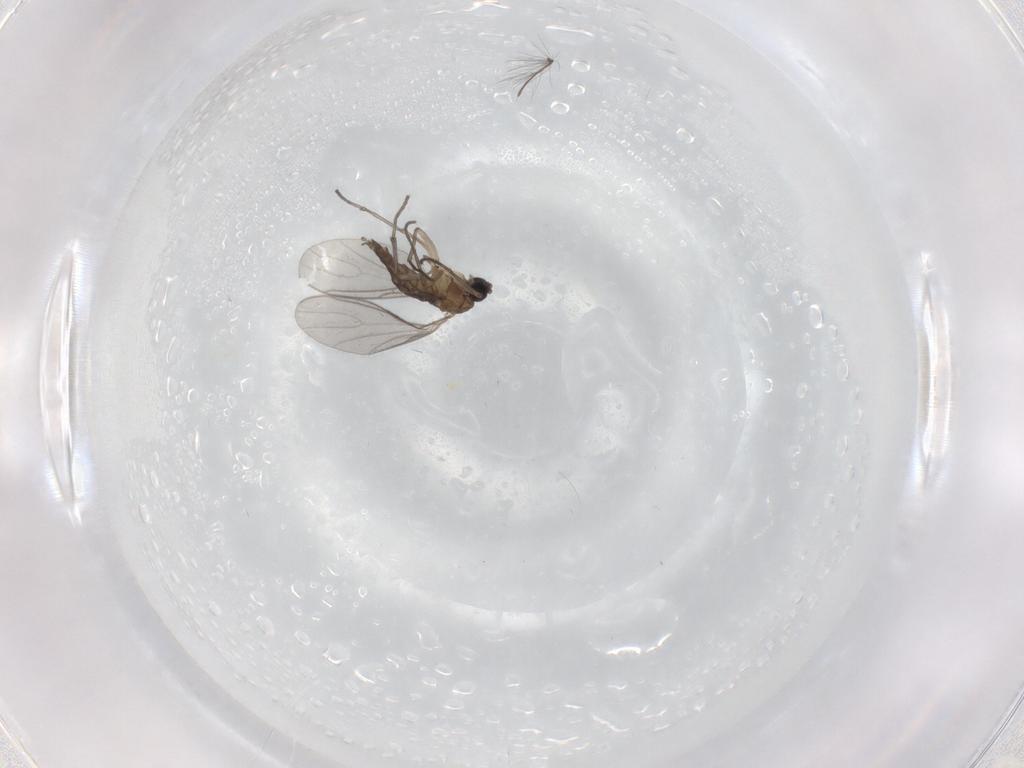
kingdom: Animalia
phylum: Arthropoda
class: Insecta
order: Diptera
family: Sciaridae
